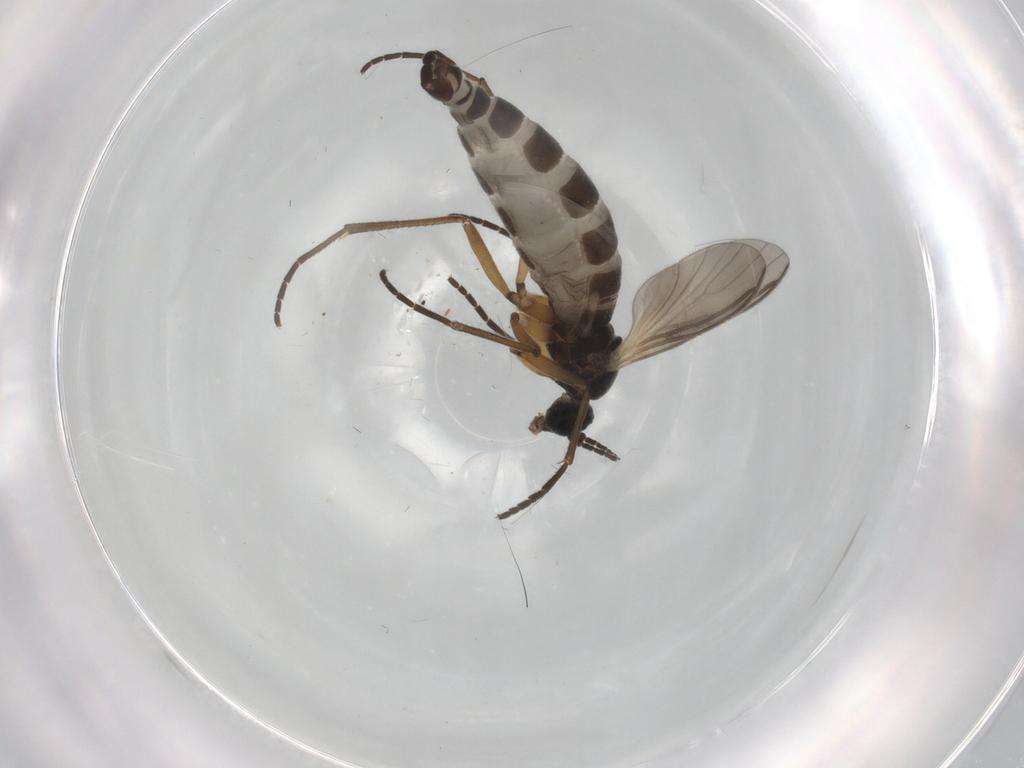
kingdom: Animalia
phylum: Arthropoda
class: Insecta
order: Diptera
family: Sciaridae
